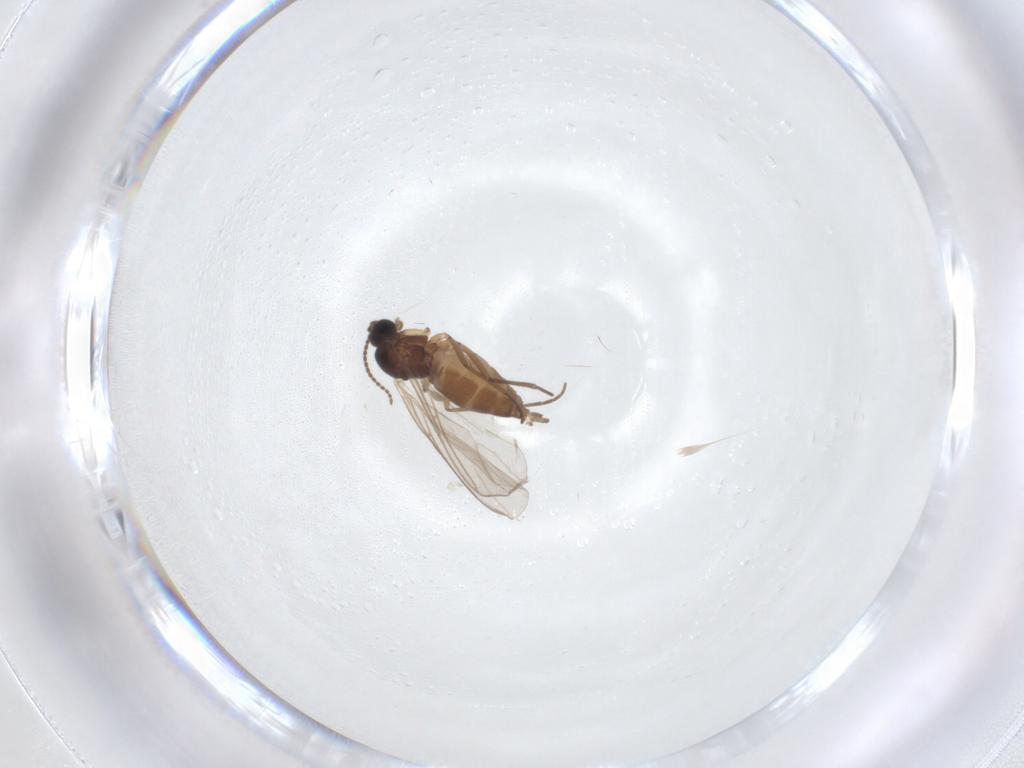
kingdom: Animalia
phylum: Arthropoda
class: Insecta
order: Diptera
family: Sciaridae
